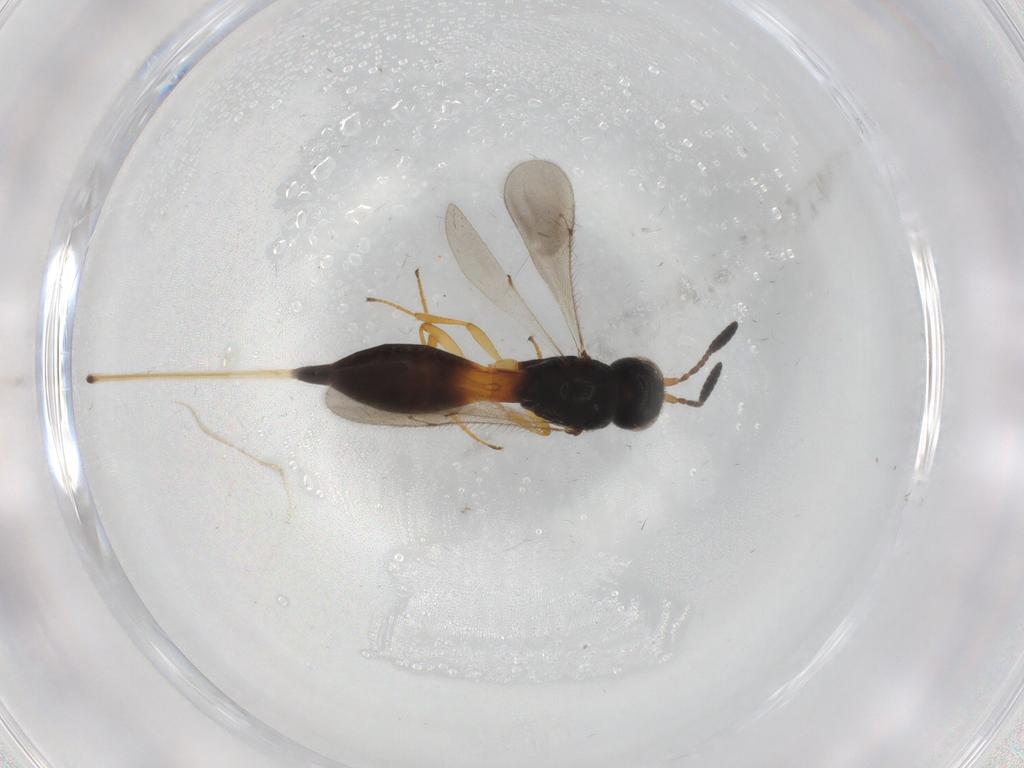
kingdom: Animalia
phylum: Arthropoda
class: Insecta
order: Hymenoptera
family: Scelionidae
